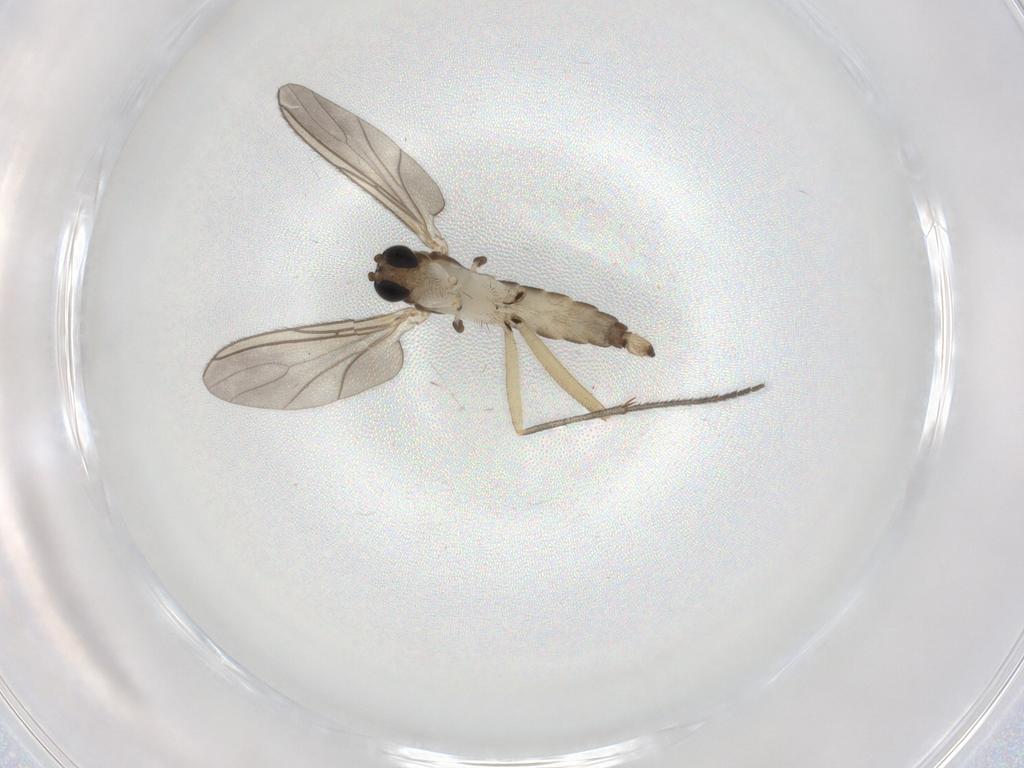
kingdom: Animalia
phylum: Arthropoda
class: Insecta
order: Diptera
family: Sciaridae
